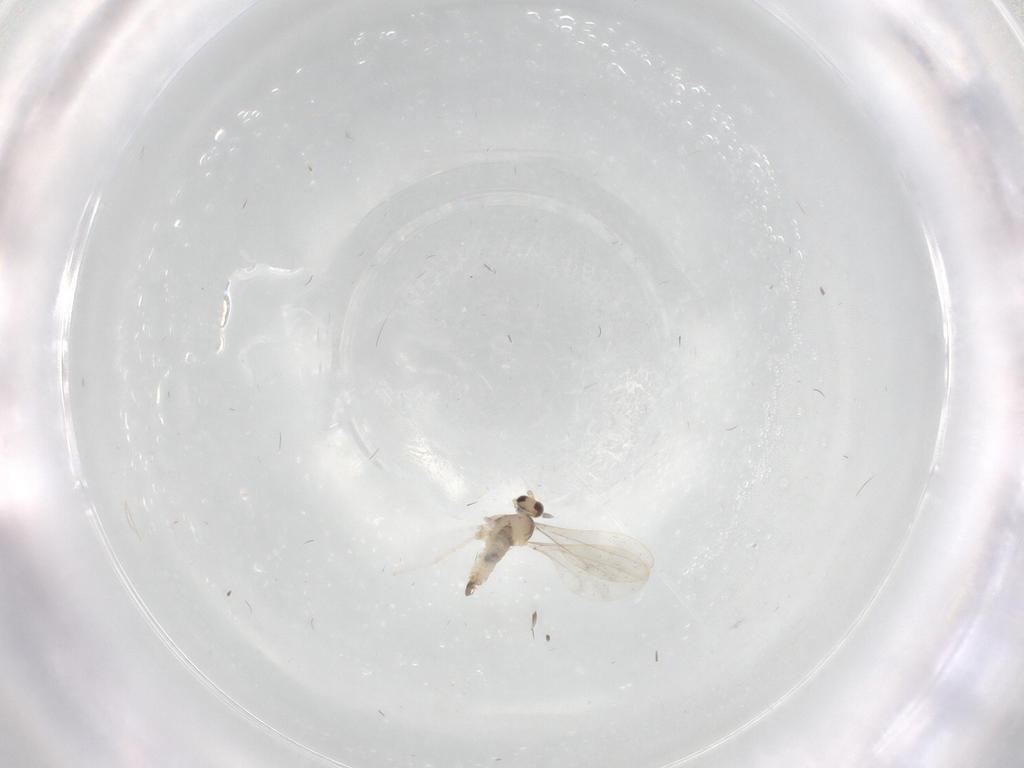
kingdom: Animalia
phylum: Arthropoda
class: Insecta
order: Diptera
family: Cecidomyiidae
